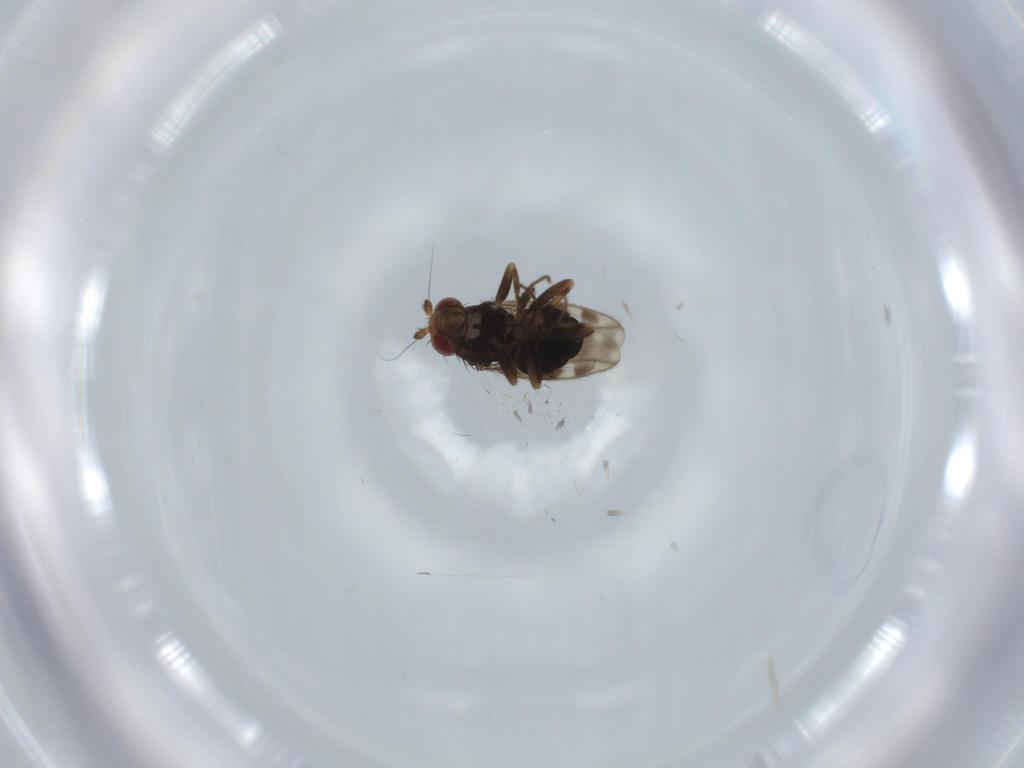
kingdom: Animalia
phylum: Arthropoda
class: Insecta
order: Diptera
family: Sphaeroceridae
